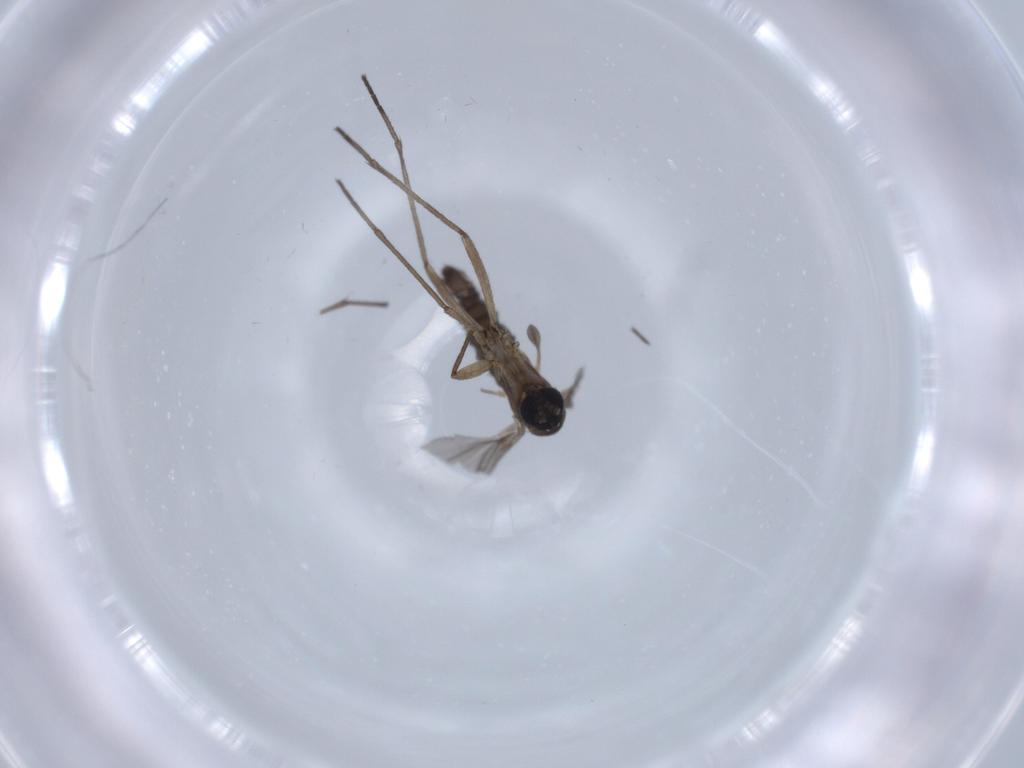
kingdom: Animalia
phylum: Arthropoda
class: Insecta
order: Diptera
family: Sciaridae
